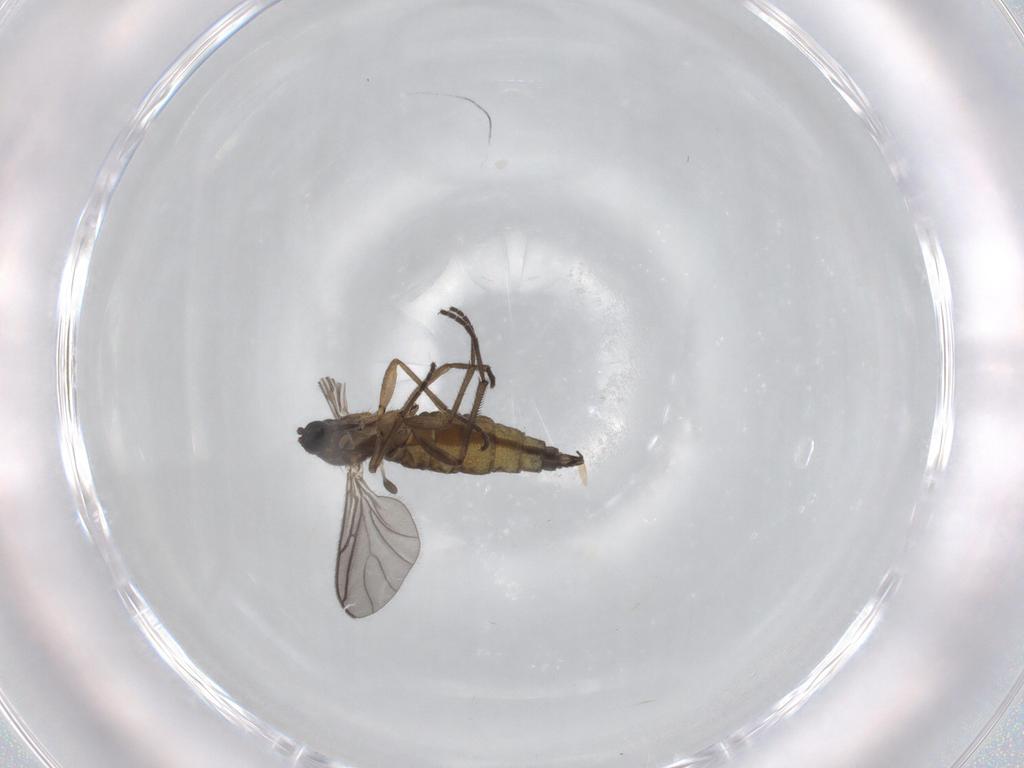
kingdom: Animalia
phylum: Arthropoda
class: Insecta
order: Diptera
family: Sciaridae
